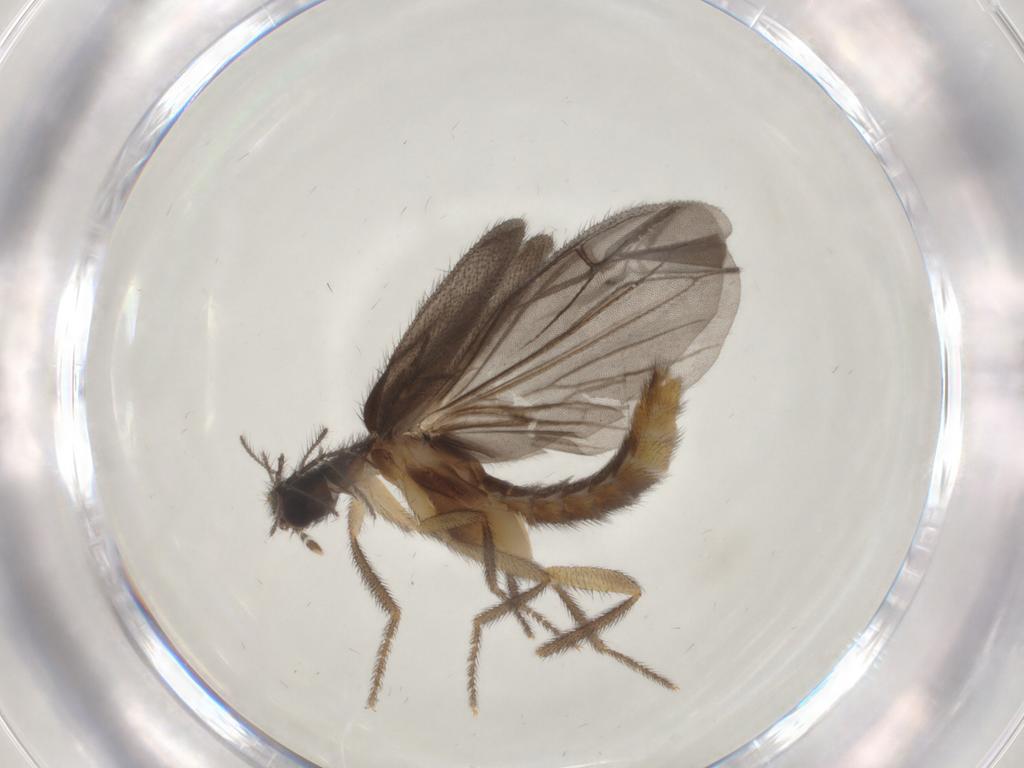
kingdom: Animalia
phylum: Arthropoda
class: Insecta
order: Coleoptera
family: Phengodidae
